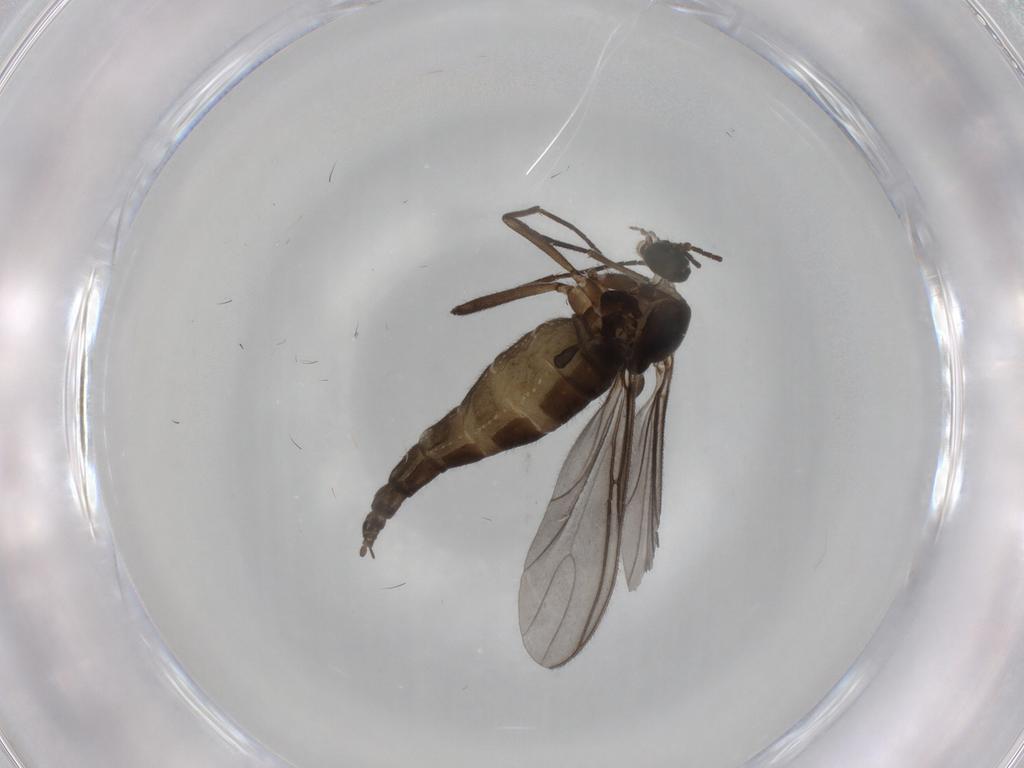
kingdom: Animalia
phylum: Arthropoda
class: Insecta
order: Diptera
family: Sciaridae
